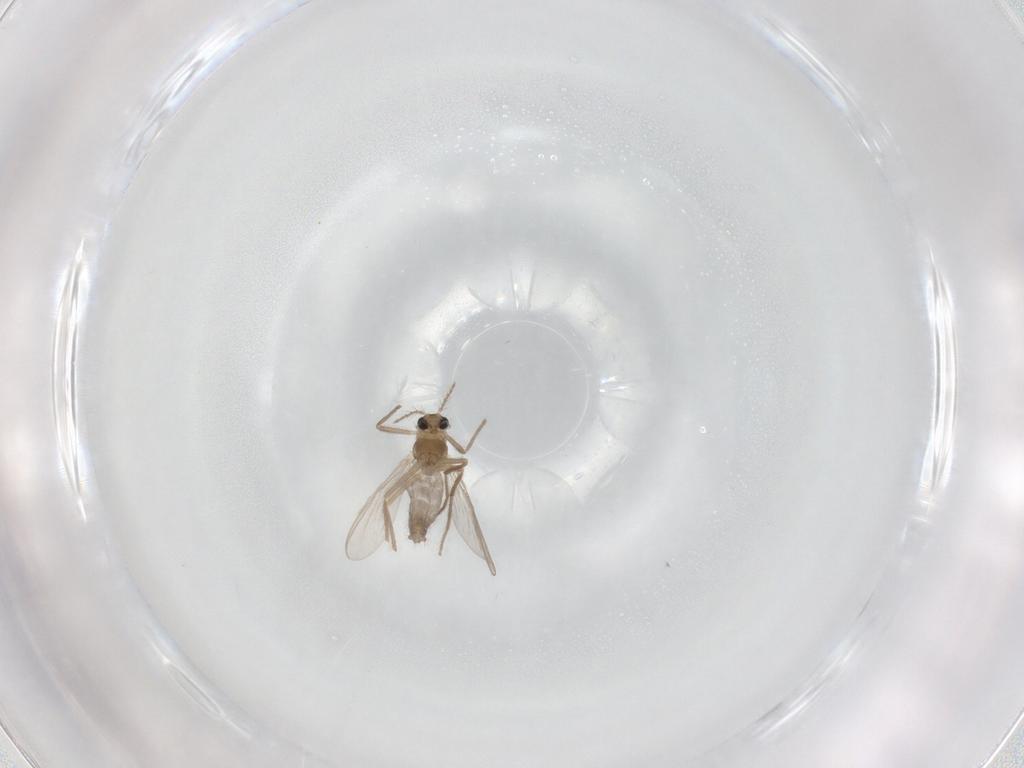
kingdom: Animalia
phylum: Arthropoda
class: Insecta
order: Diptera
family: Chironomidae
